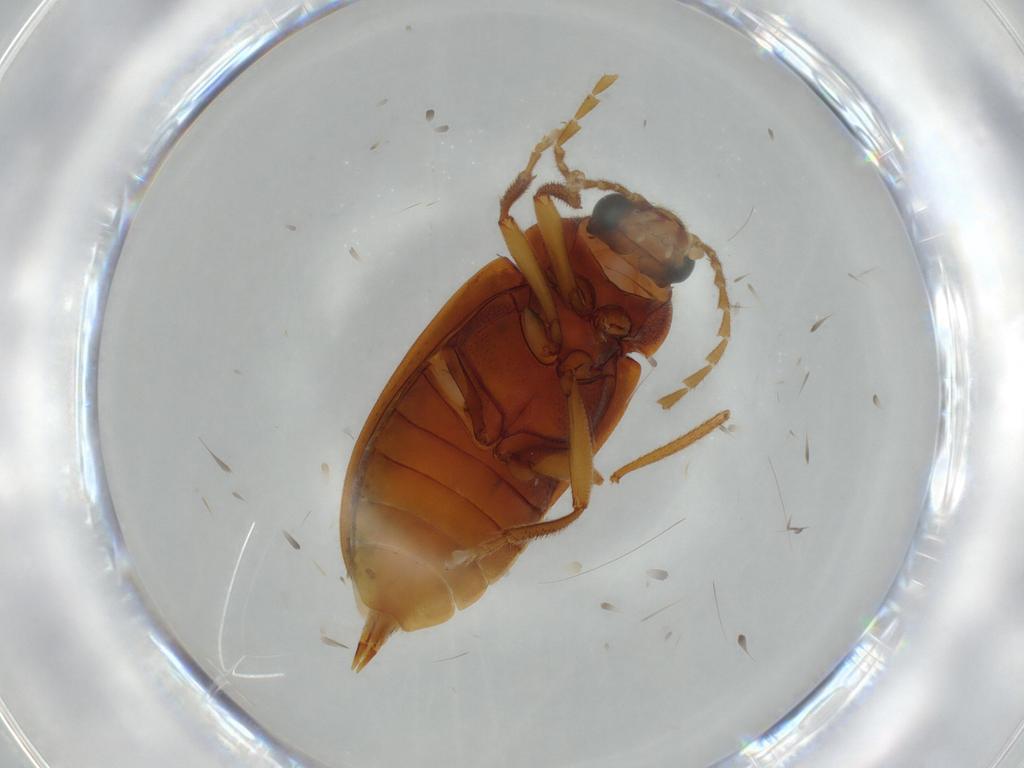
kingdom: Animalia
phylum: Arthropoda
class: Insecta
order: Coleoptera
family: Ptilodactylidae
